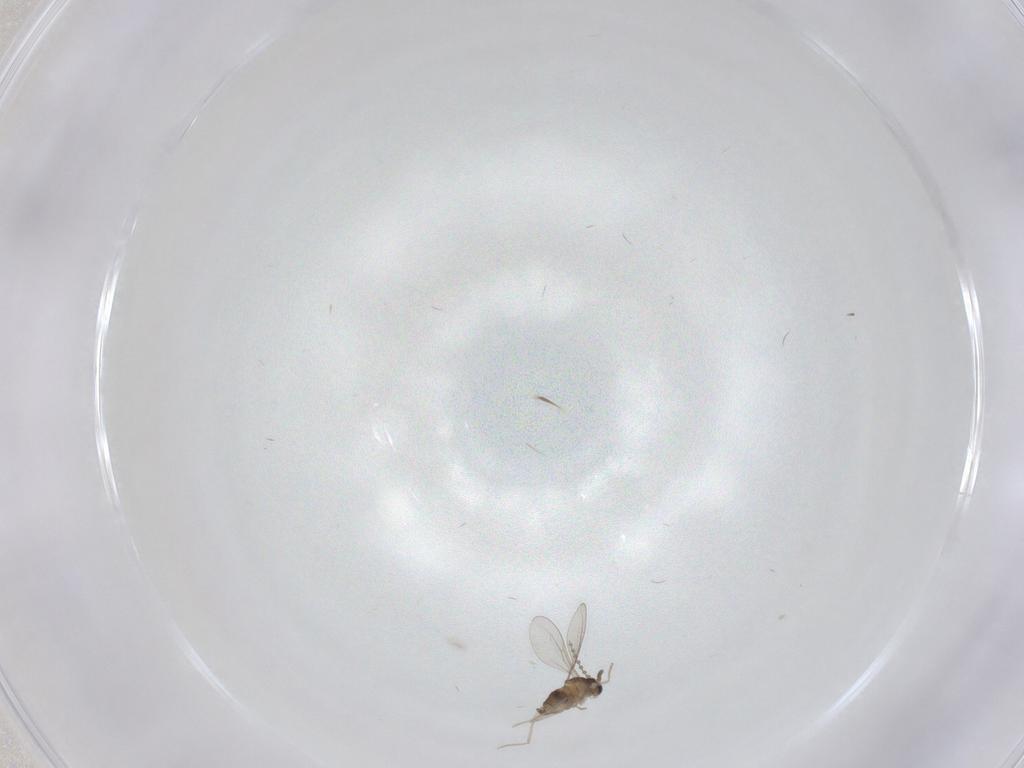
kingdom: Animalia
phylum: Arthropoda
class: Insecta
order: Diptera
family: Cecidomyiidae
